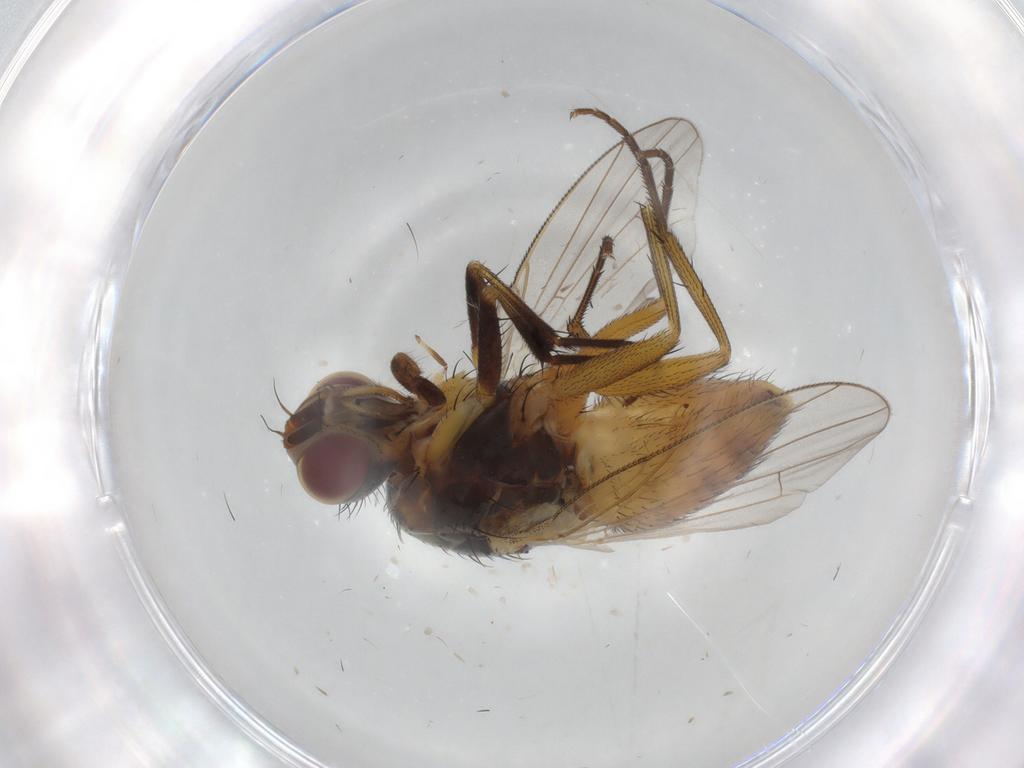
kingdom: Animalia
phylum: Arthropoda
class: Insecta
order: Diptera
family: Muscidae
